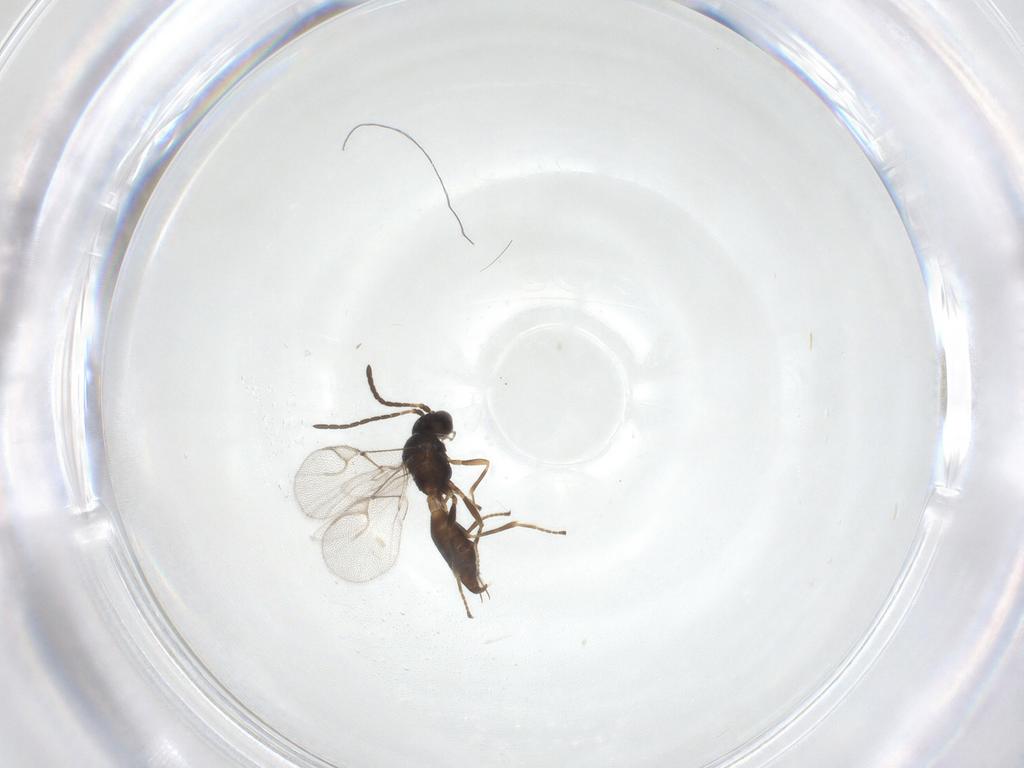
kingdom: Animalia
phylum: Arthropoda
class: Insecta
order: Hymenoptera
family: Braconidae
